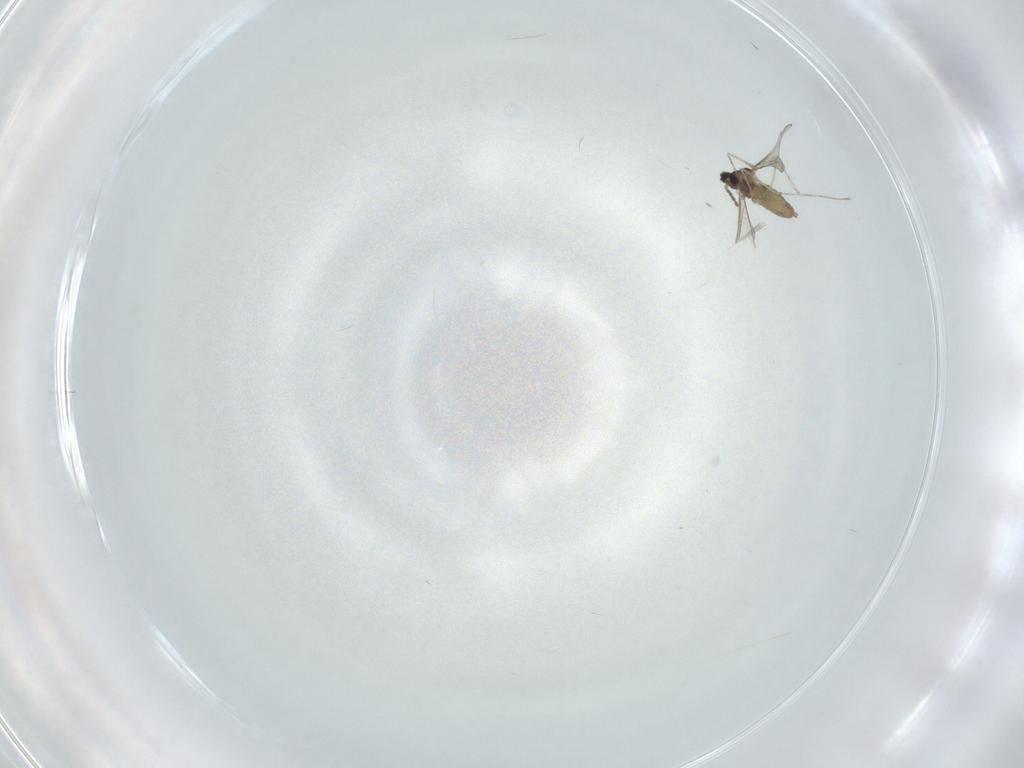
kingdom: Animalia
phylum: Arthropoda
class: Insecta
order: Diptera
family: Cecidomyiidae
